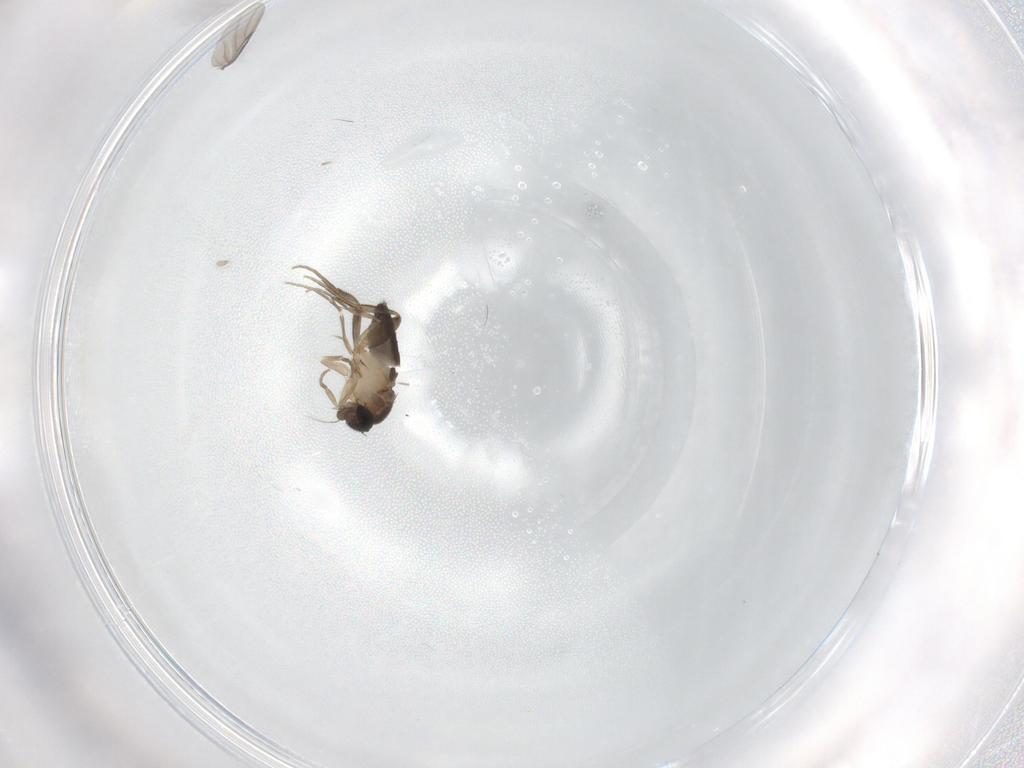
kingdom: Animalia
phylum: Arthropoda
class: Insecta
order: Diptera
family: Phoridae
